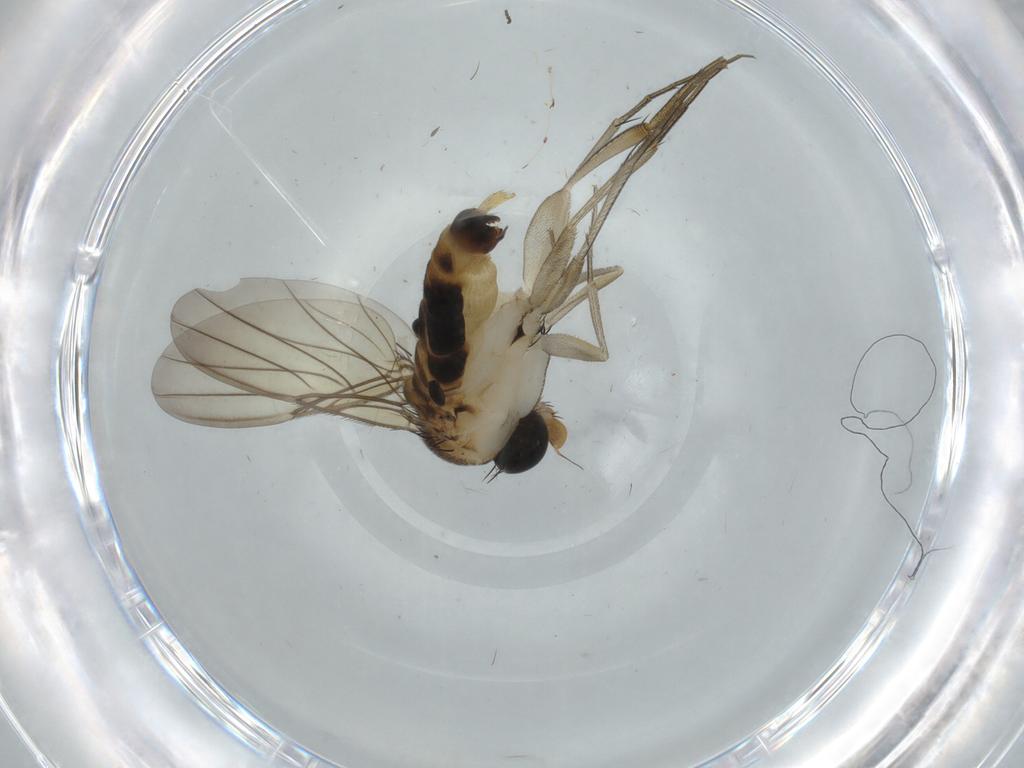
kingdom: Animalia
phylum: Arthropoda
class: Insecta
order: Diptera
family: Phoridae
